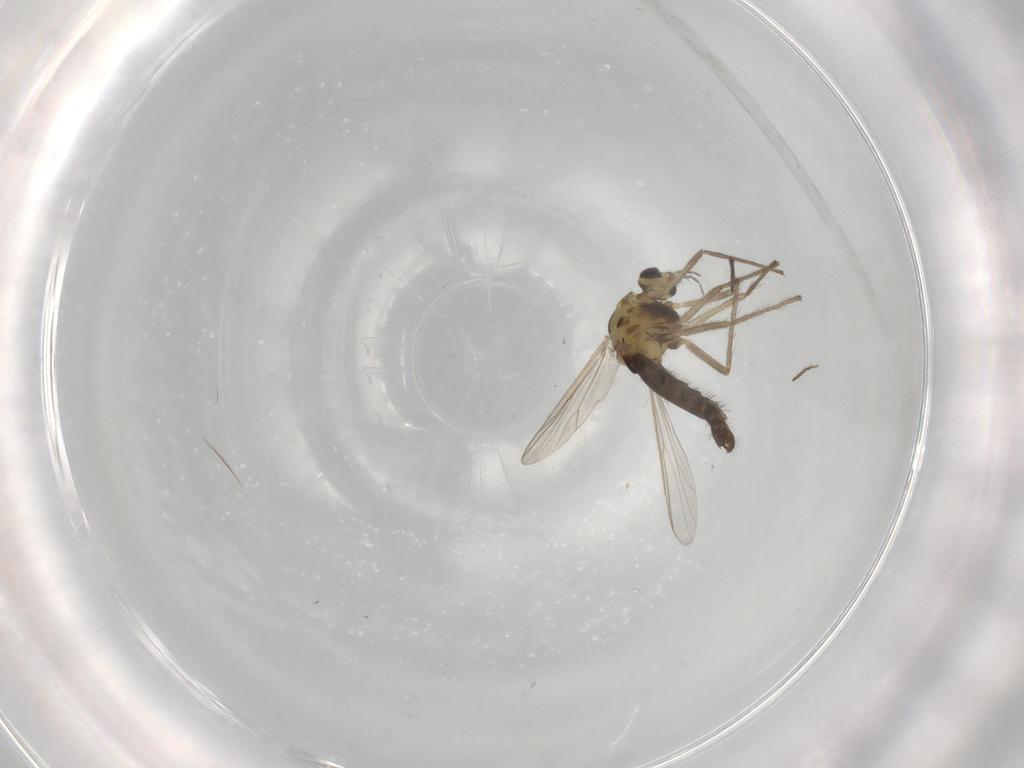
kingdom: Animalia
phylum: Arthropoda
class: Insecta
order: Diptera
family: Chironomidae
